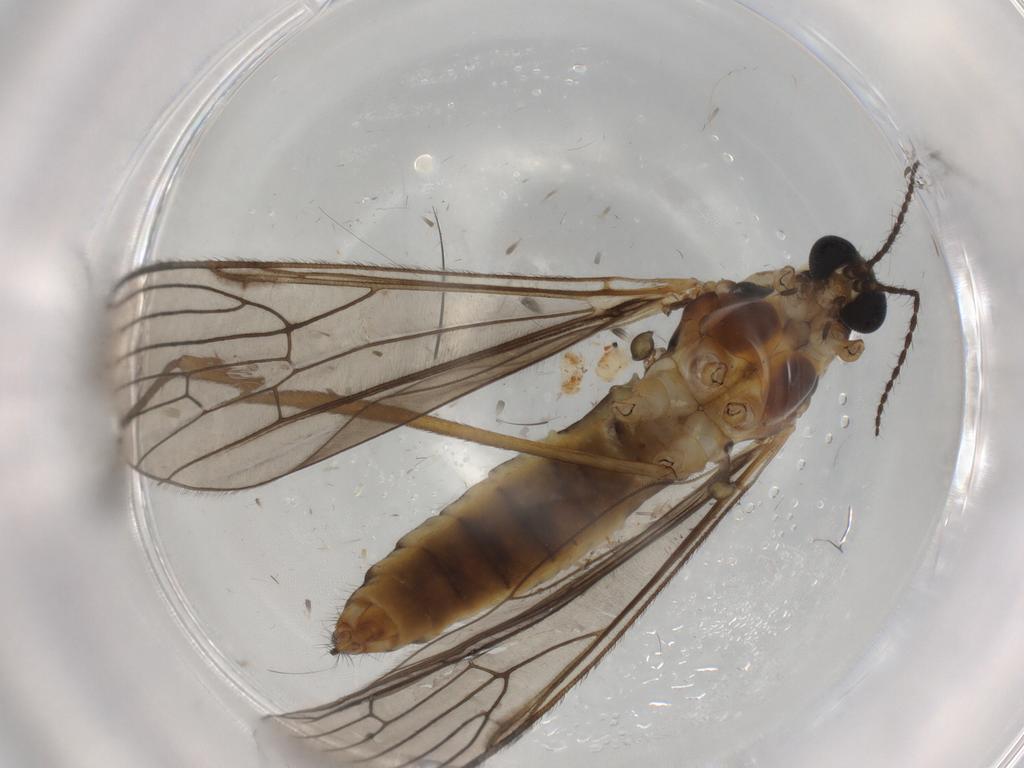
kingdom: Animalia
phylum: Arthropoda
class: Insecta
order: Diptera
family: Limoniidae
